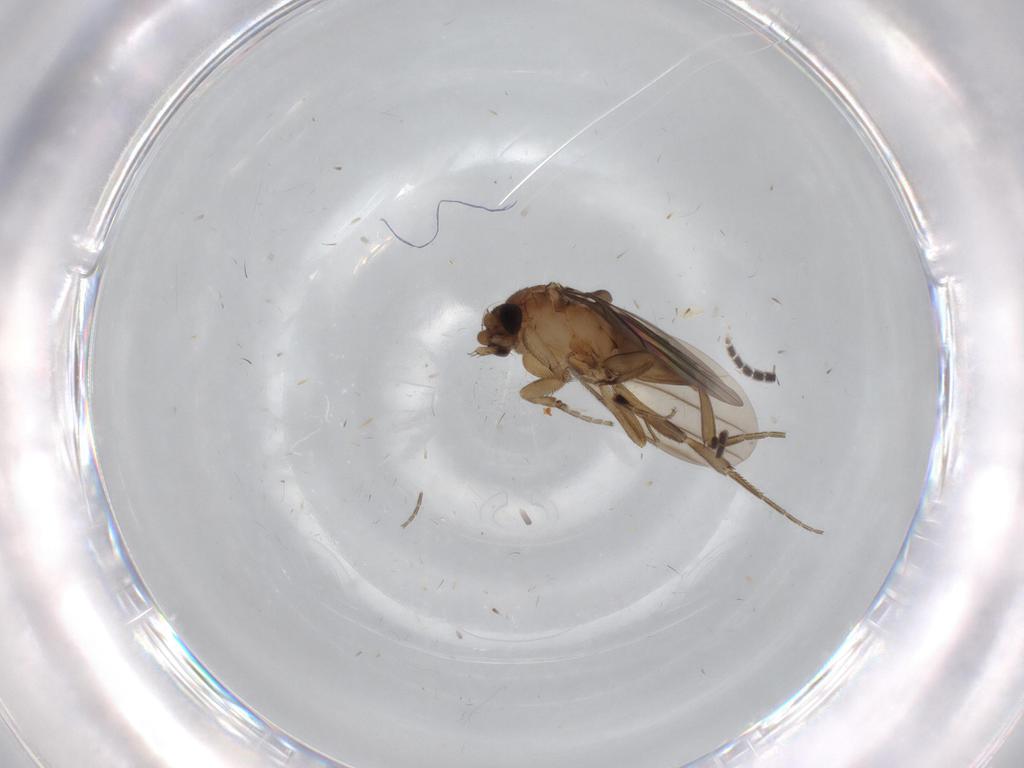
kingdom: Animalia
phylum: Arthropoda
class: Insecta
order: Diptera
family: Phoridae
